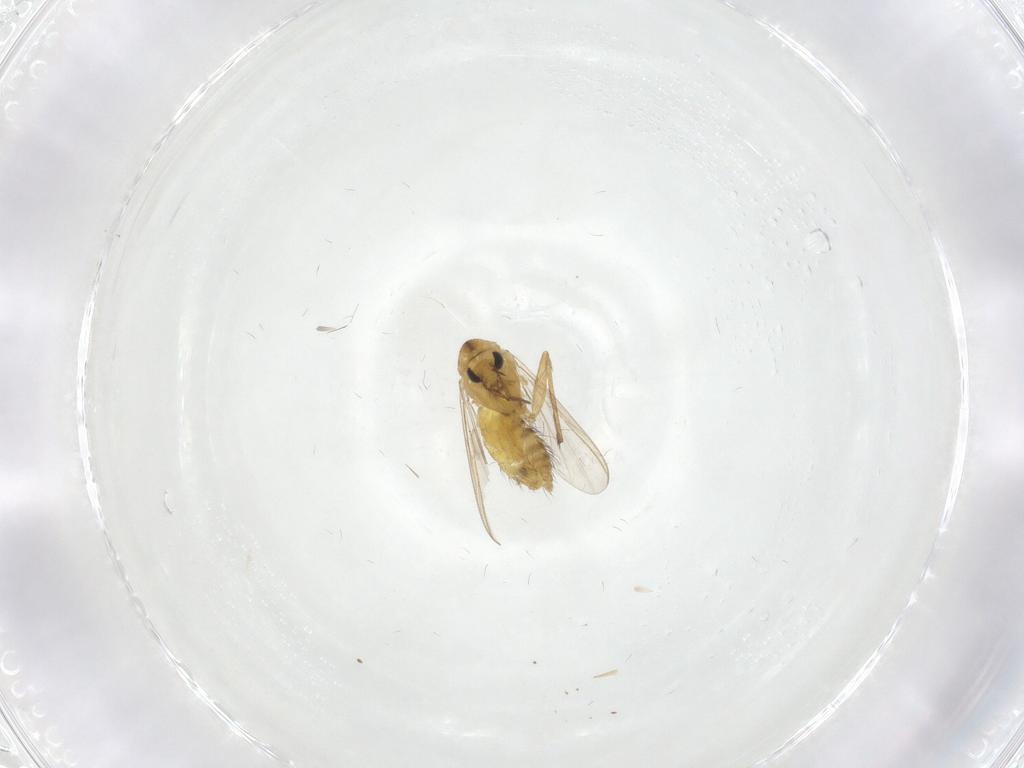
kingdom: Animalia
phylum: Arthropoda
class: Insecta
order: Diptera
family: Chironomidae
